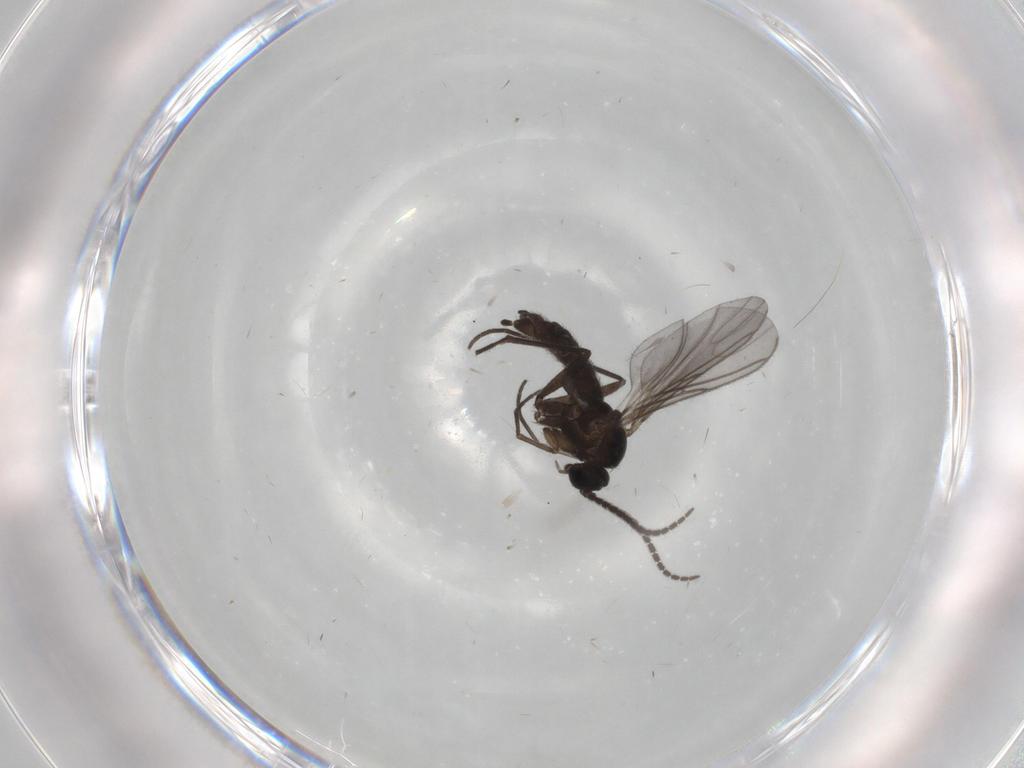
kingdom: Animalia
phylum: Arthropoda
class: Insecta
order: Diptera
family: Sciaridae
